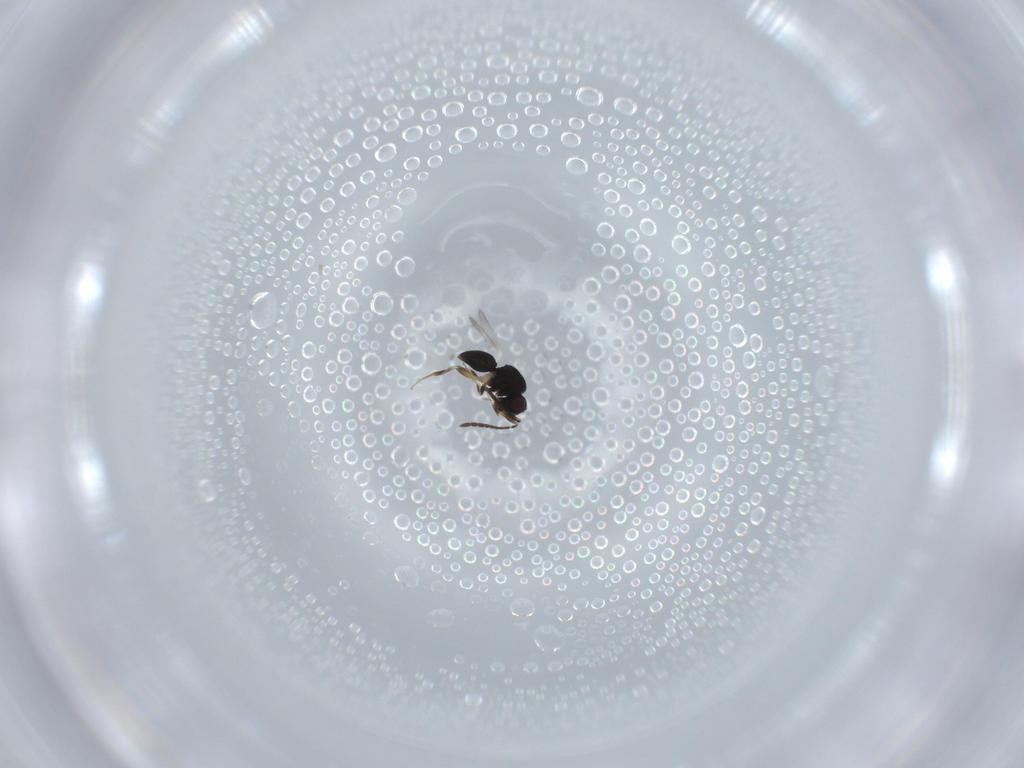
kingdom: Animalia
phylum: Arthropoda
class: Insecta
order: Hymenoptera
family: Ceraphronidae
